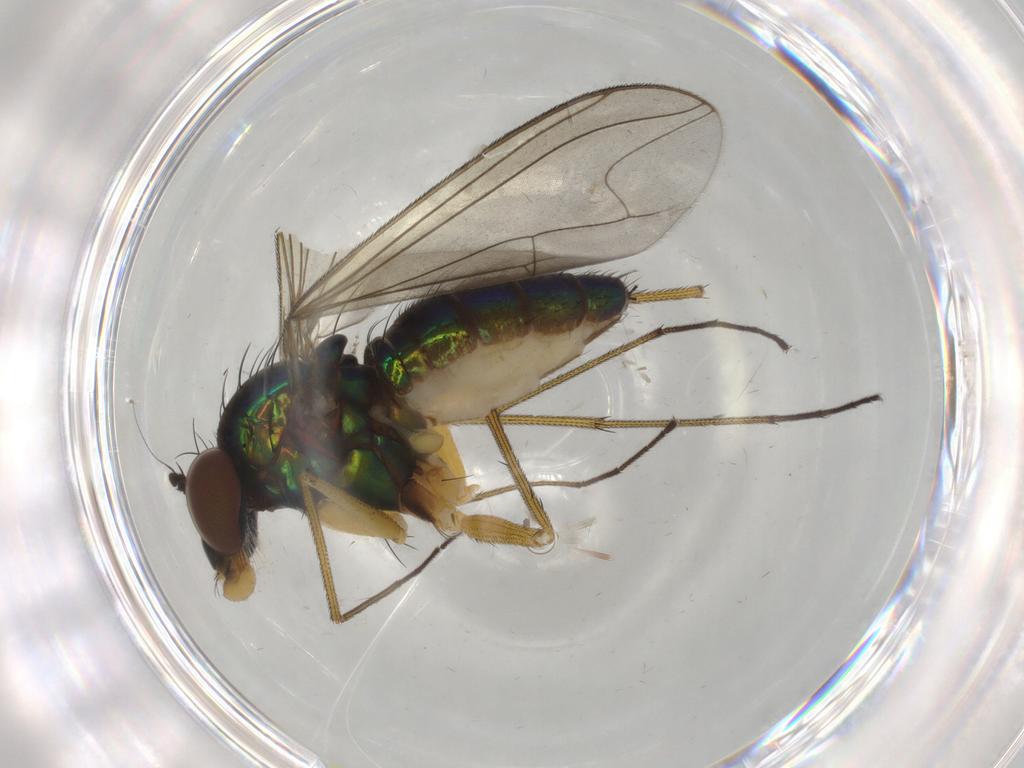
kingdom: Animalia
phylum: Arthropoda
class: Insecta
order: Diptera
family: Dolichopodidae
